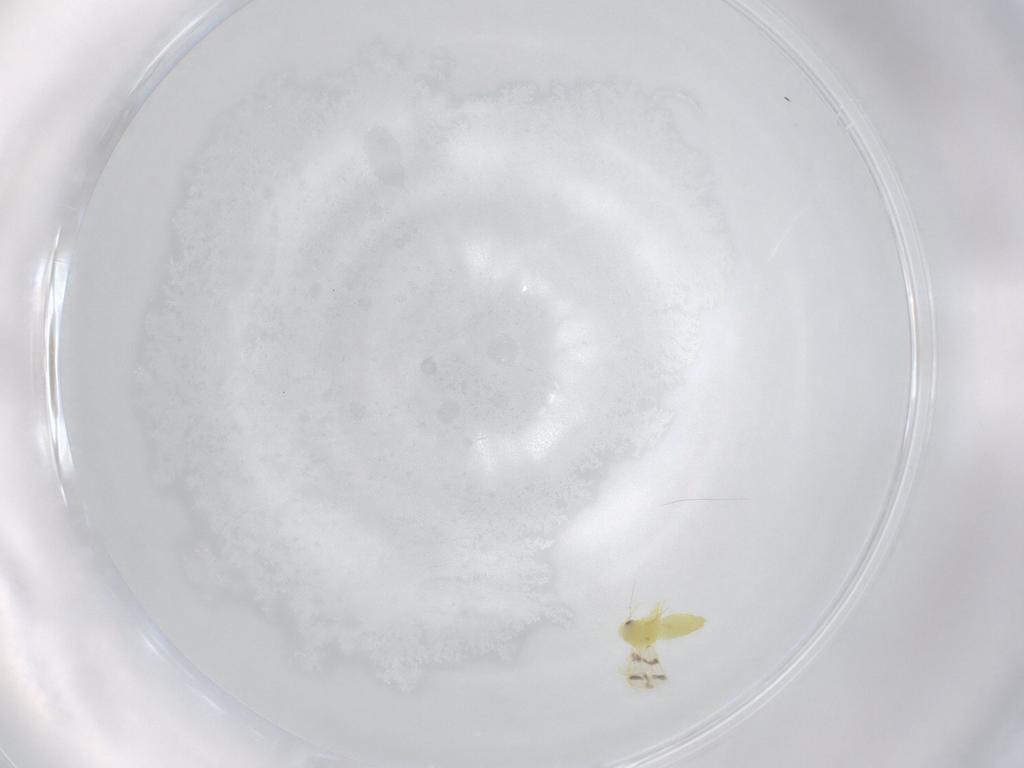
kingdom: Animalia
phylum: Arthropoda
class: Insecta
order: Hemiptera
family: Aleyrodidae
